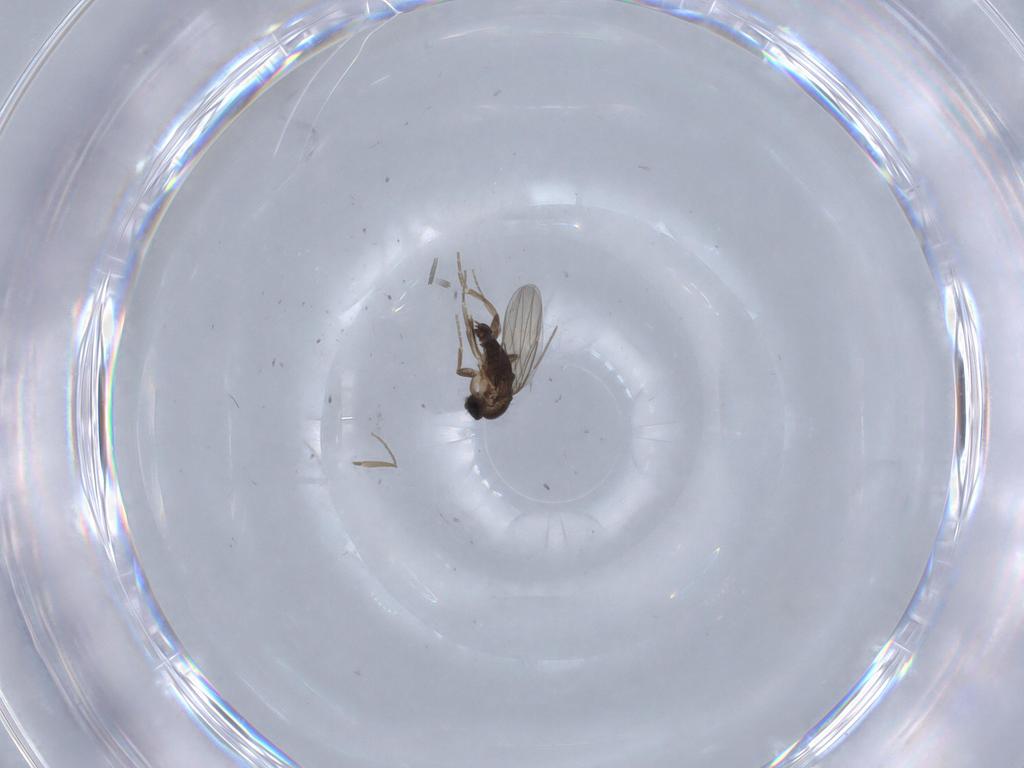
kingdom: Animalia
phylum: Arthropoda
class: Insecta
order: Diptera
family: Phoridae
